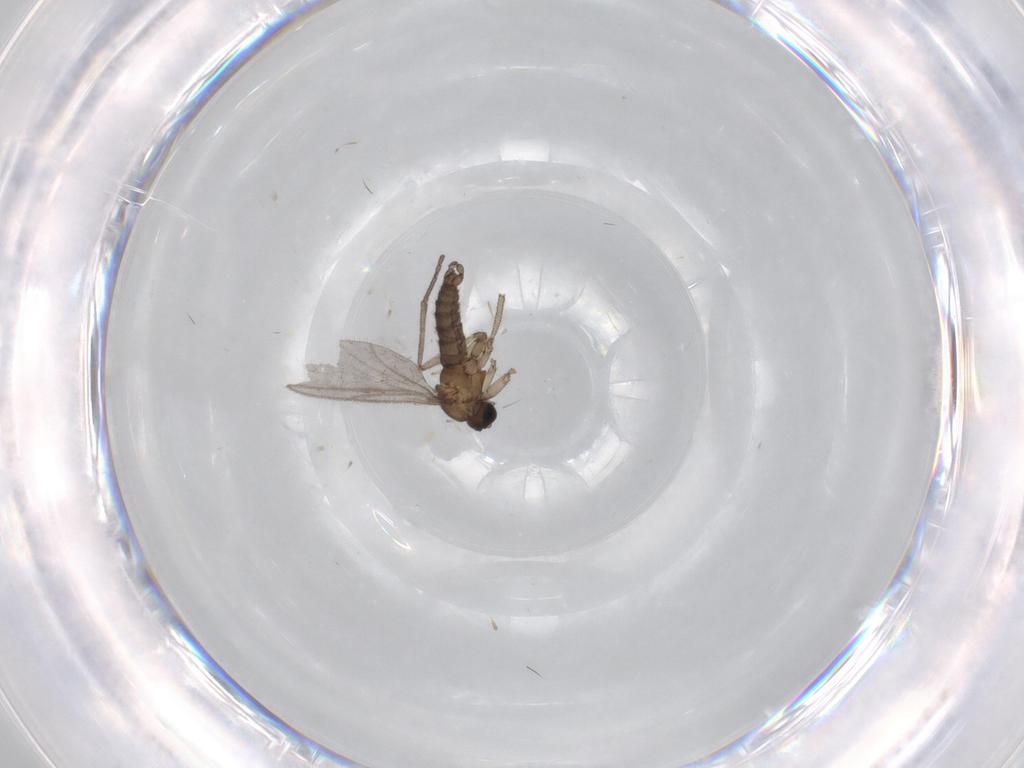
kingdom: Animalia
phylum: Arthropoda
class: Insecta
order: Diptera
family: Sciaridae
